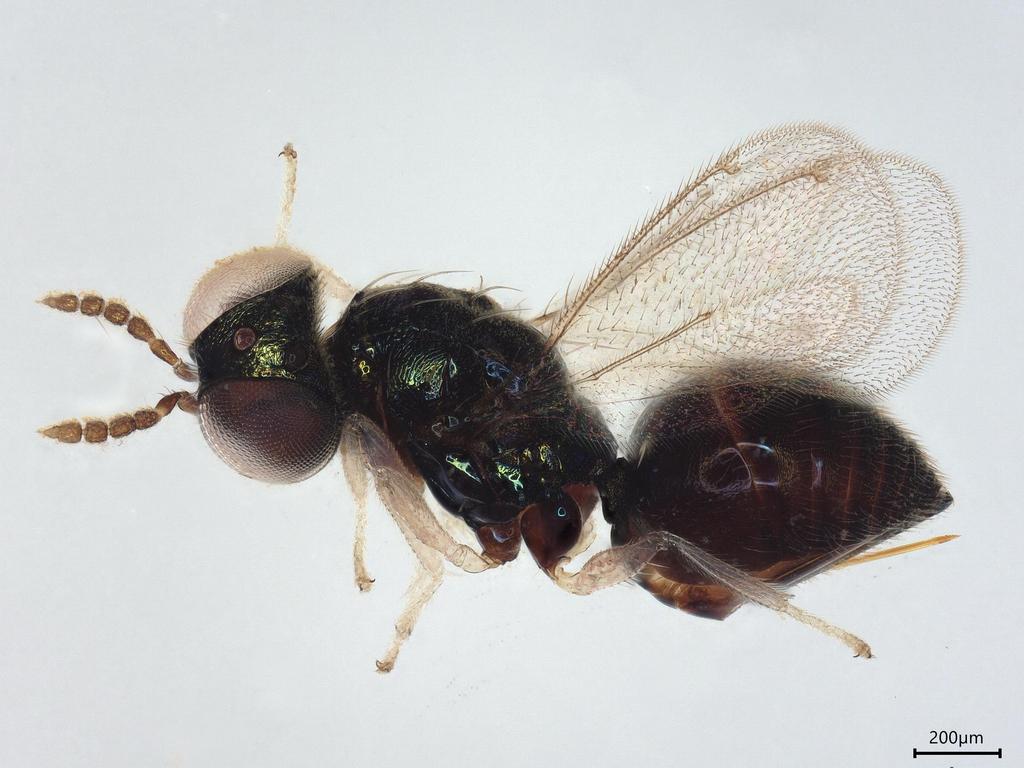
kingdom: Animalia
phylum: Arthropoda
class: Insecta
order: Hymenoptera
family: Eulophidae
